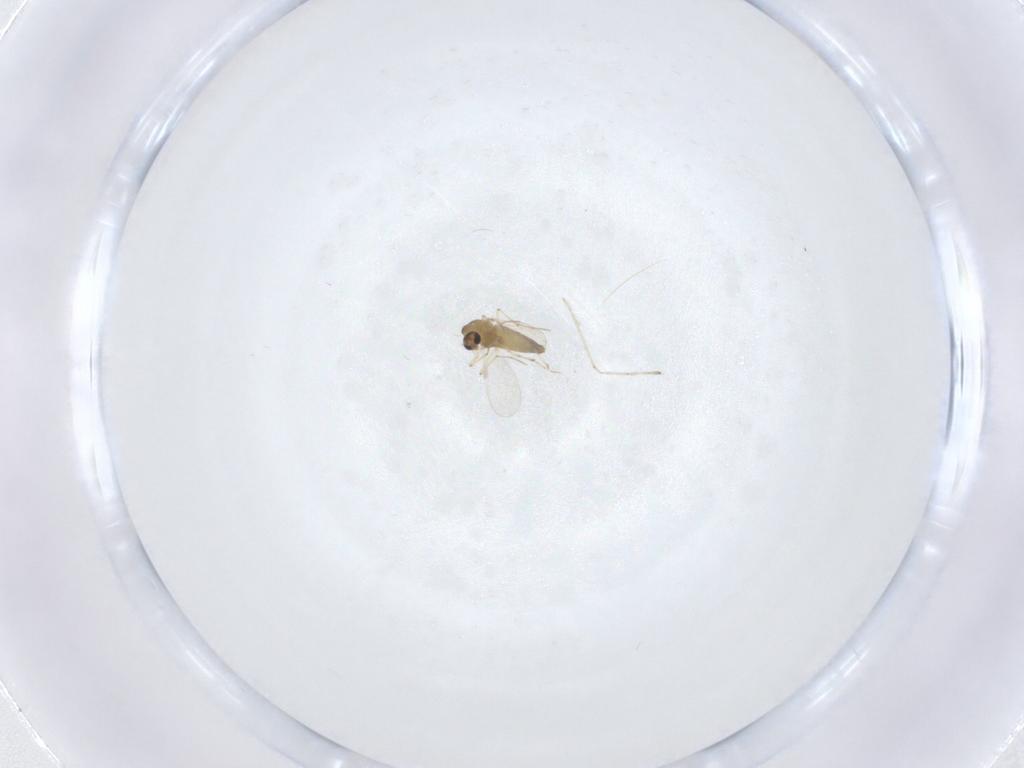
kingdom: Animalia
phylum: Arthropoda
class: Insecta
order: Diptera
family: Chironomidae
